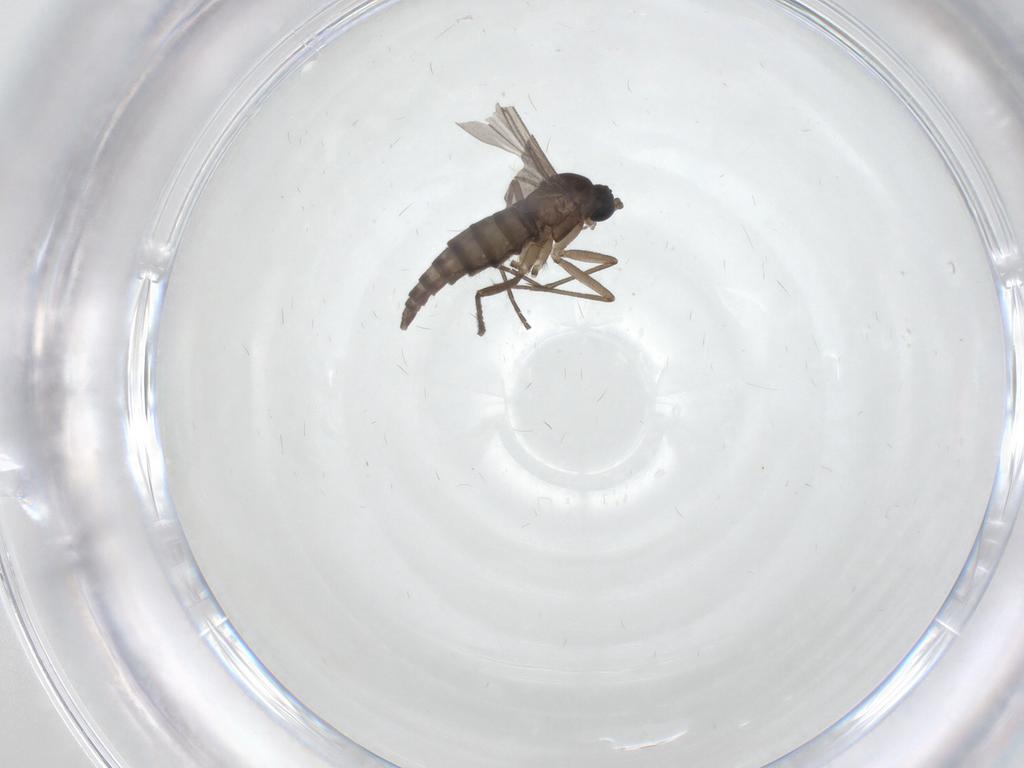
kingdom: Animalia
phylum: Arthropoda
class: Insecta
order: Diptera
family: Sciaridae
